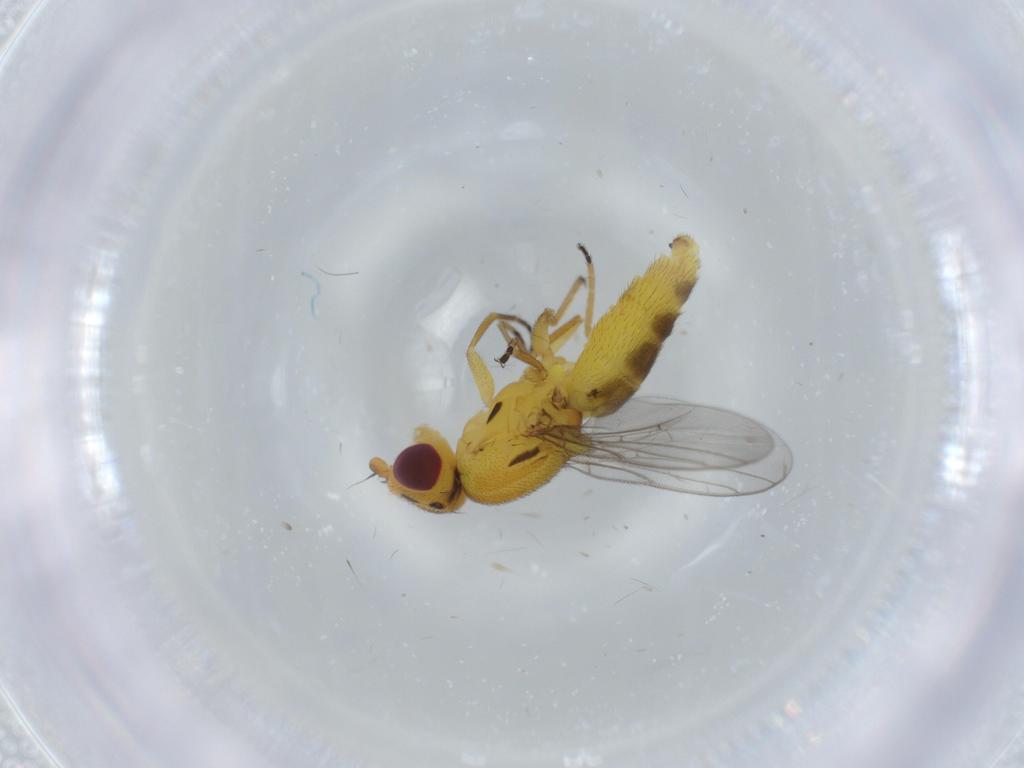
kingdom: Animalia
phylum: Arthropoda
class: Insecta
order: Diptera
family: Chloropidae
